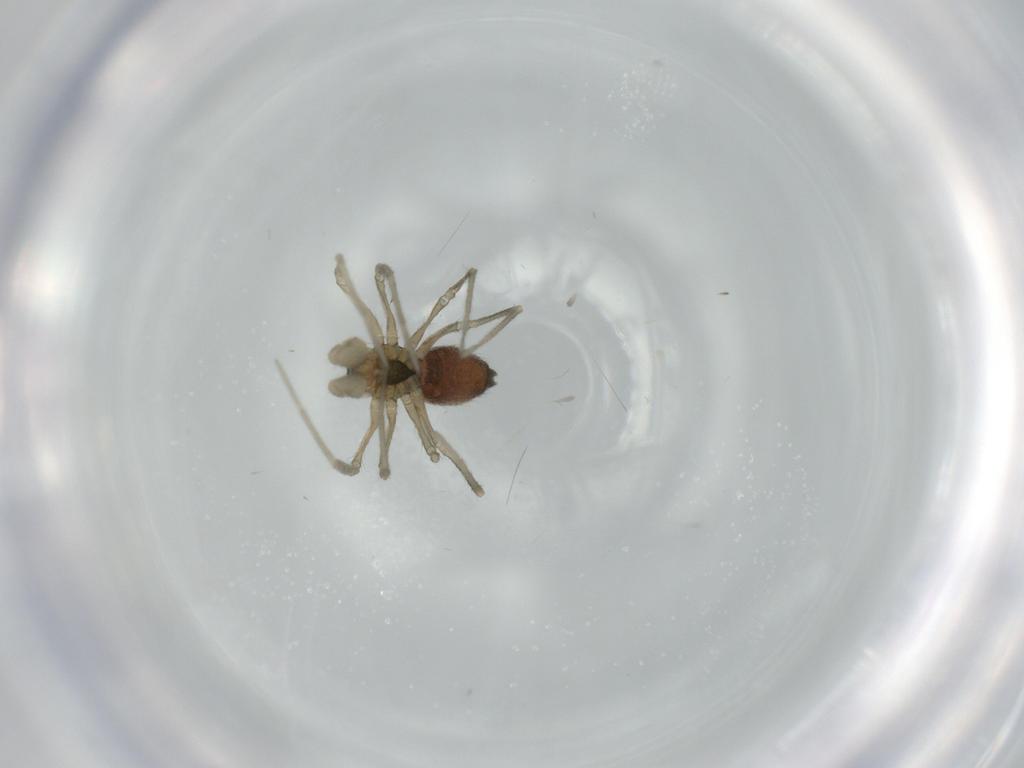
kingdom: Animalia
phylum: Arthropoda
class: Arachnida
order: Araneae
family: Linyphiidae
